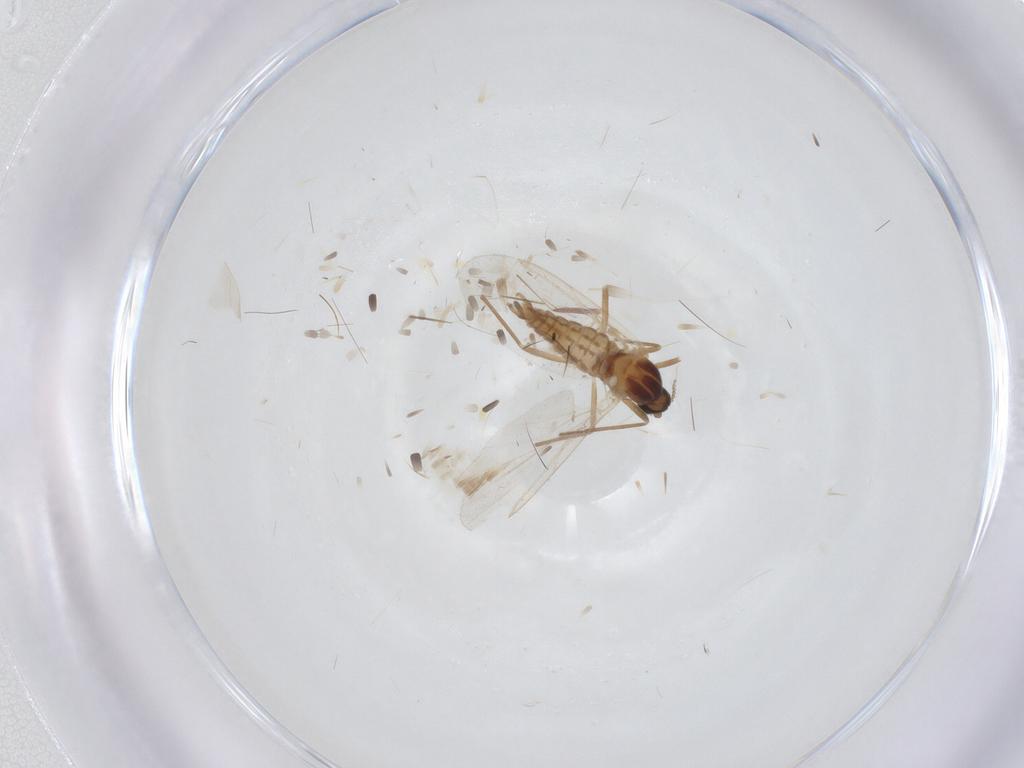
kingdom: Animalia
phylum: Arthropoda
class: Insecta
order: Diptera
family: Cecidomyiidae
